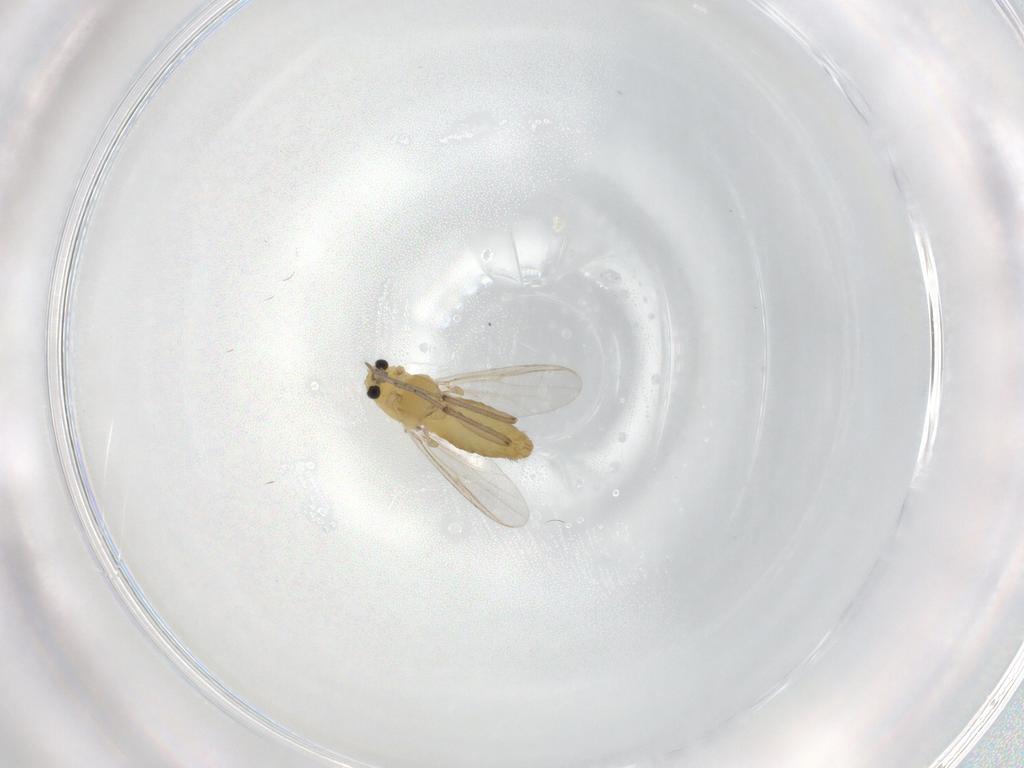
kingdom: Animalia
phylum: Arthropoda
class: Insecta
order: Diptera
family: Chironomidae
